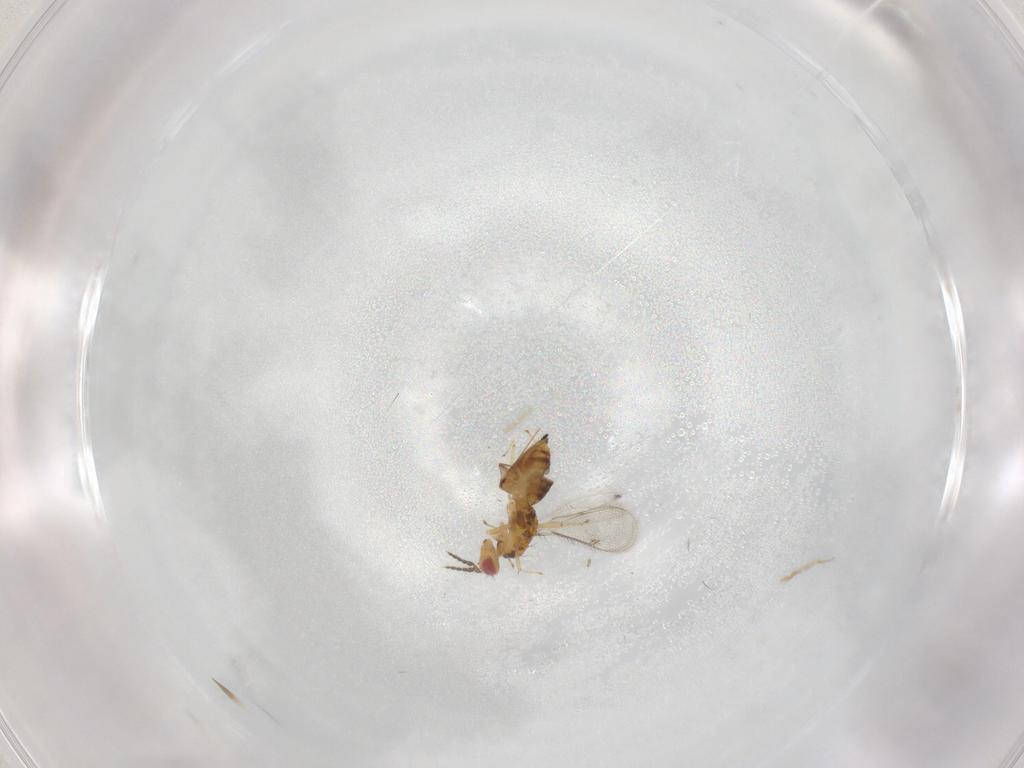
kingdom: Animalia
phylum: Arthropoda
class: Insecta
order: Hymenoptera
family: Eulophidae
